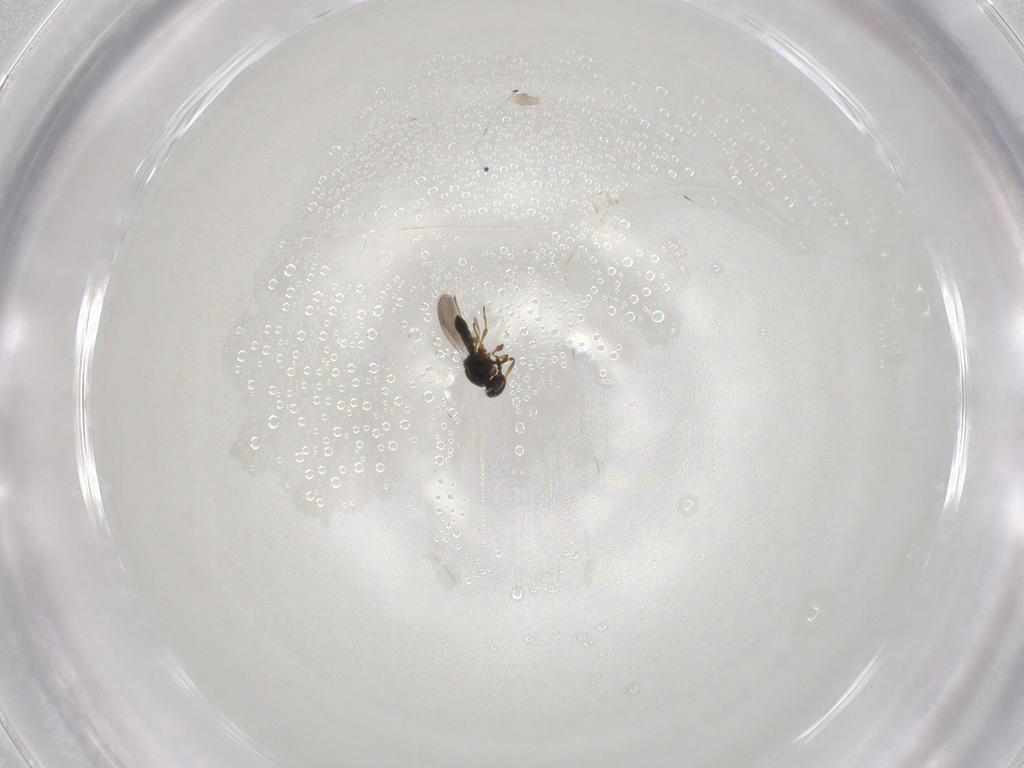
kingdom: Animalia
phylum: Arthropoda
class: Insecta
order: Hymenoptera
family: Platygastridae
